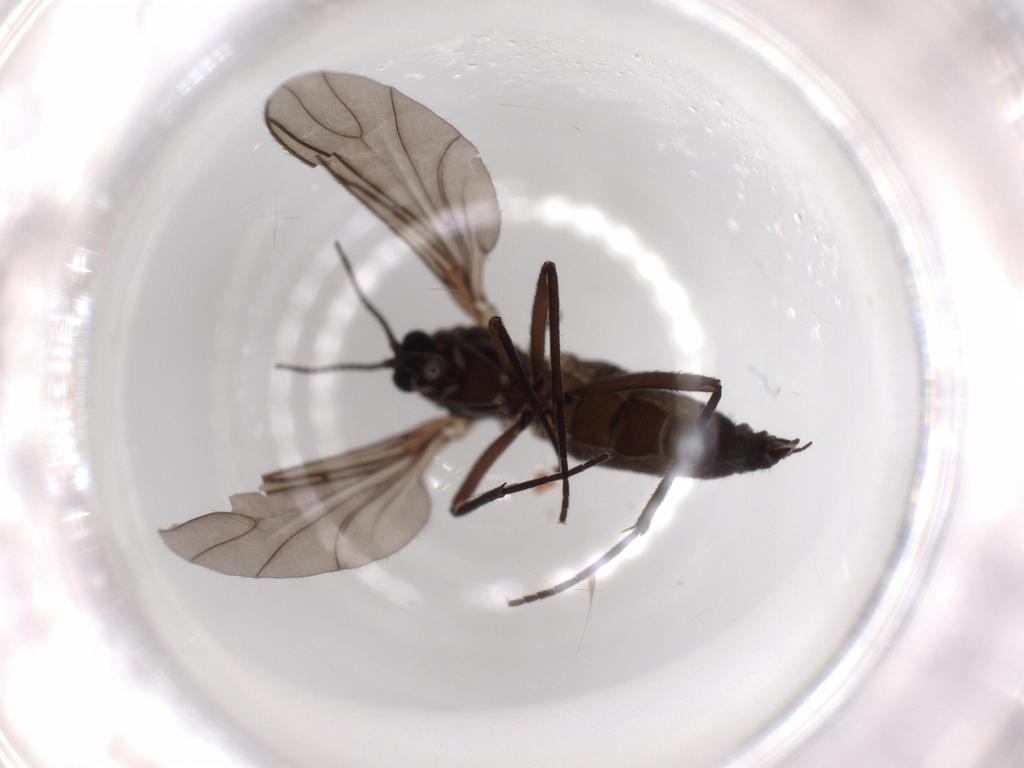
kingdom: Animalia
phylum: Arthropoda
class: Insecta
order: Diptera
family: Sciaridae
